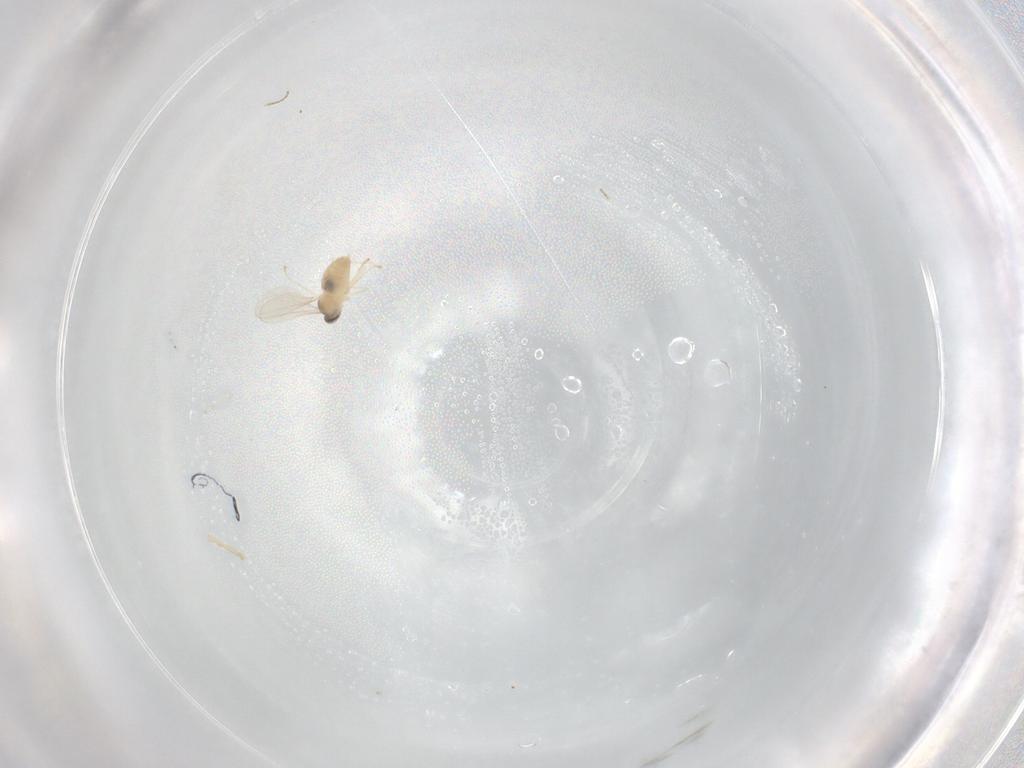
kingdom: Animalia
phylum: Arthropoda
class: Insecta
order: Diptera
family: Cecidomyiidae
